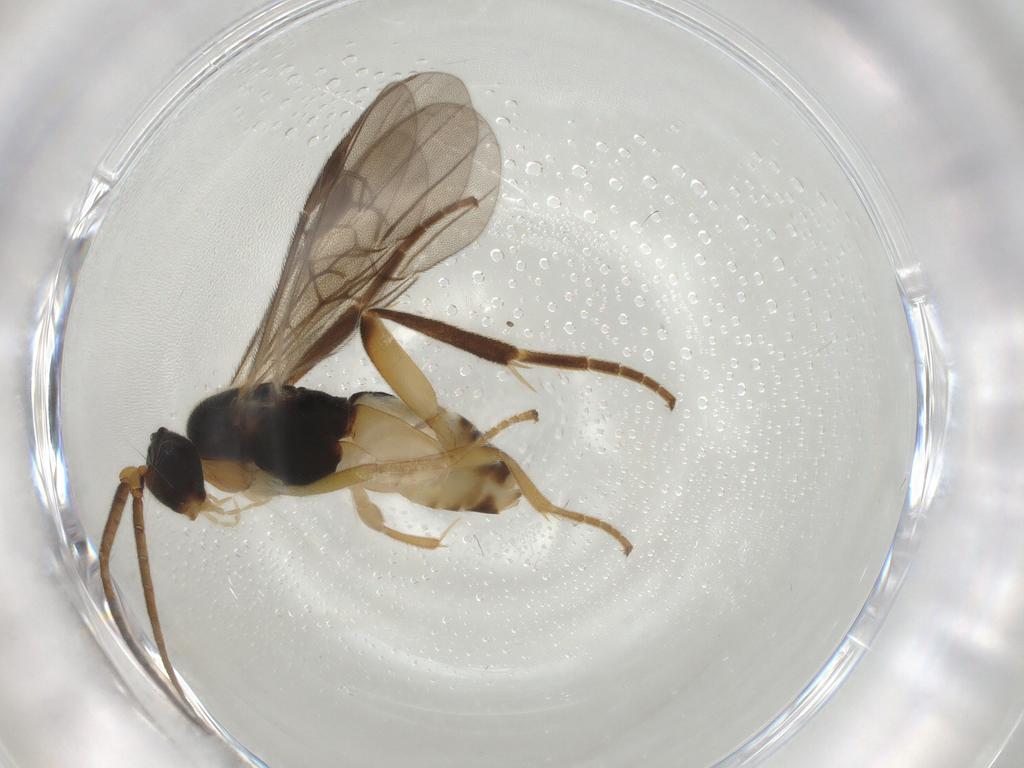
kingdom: Animalia
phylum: Arthropoda
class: Insecta
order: Hymenoptera
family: Braconidae
